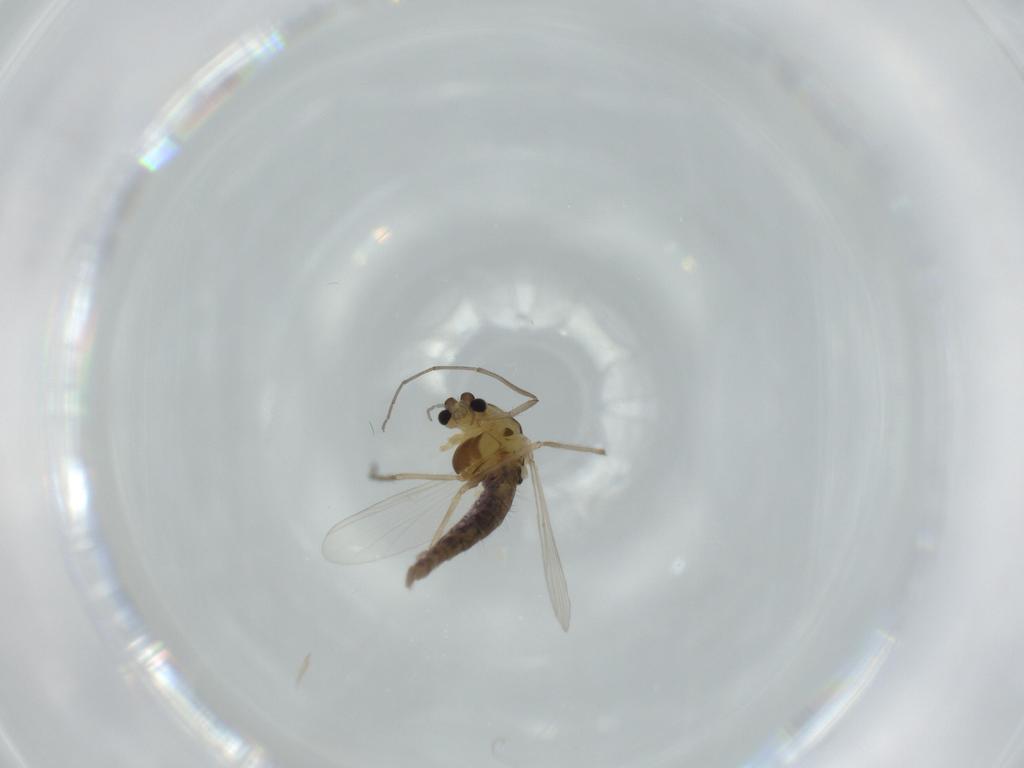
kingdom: Animalia
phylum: Arthropoda
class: Insecta
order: Diptera
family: Chironomidae
